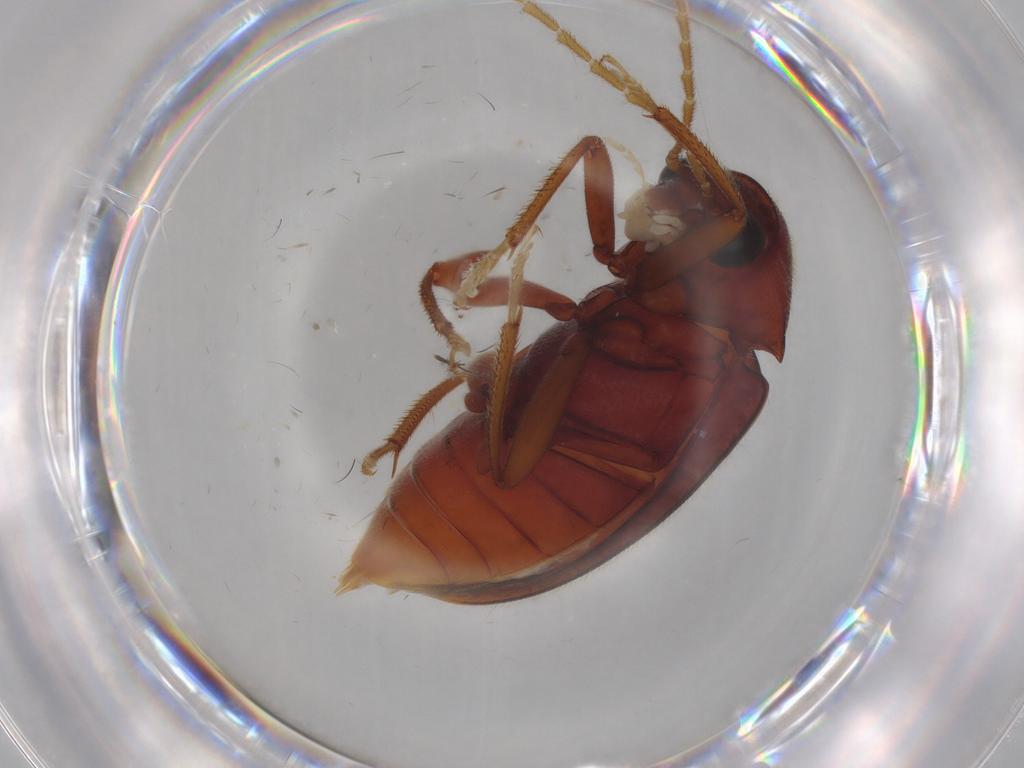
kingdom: Animalia
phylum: Arthropoda
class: Insecta
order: Coleoptera
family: Ptilodactylidae
